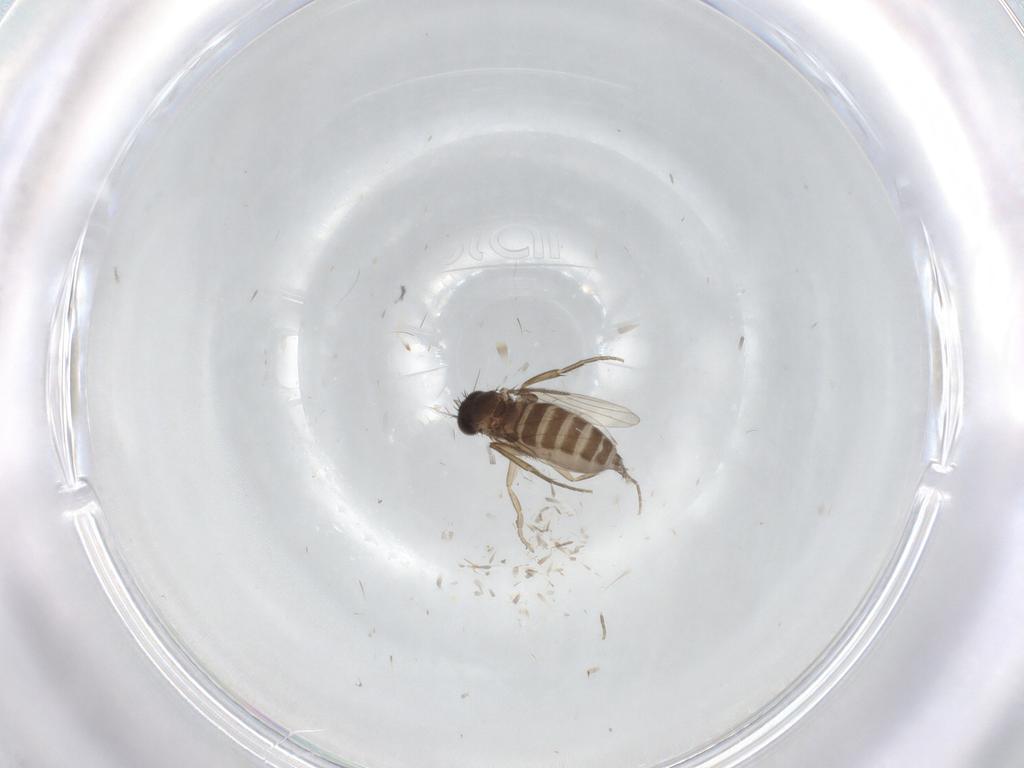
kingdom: Animalia
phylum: Arthropoda
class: Insecta
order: Diptera
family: Phoridae
